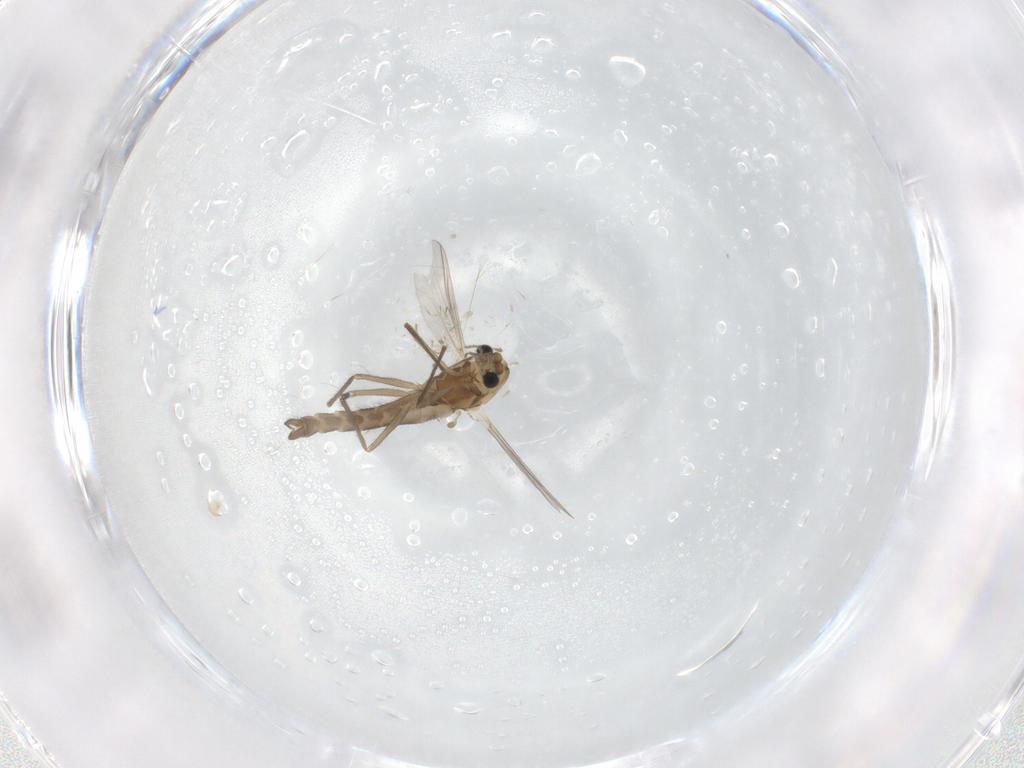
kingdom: Animalia
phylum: Arthropoda
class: Insecta
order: Diptera
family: Chironomidae
